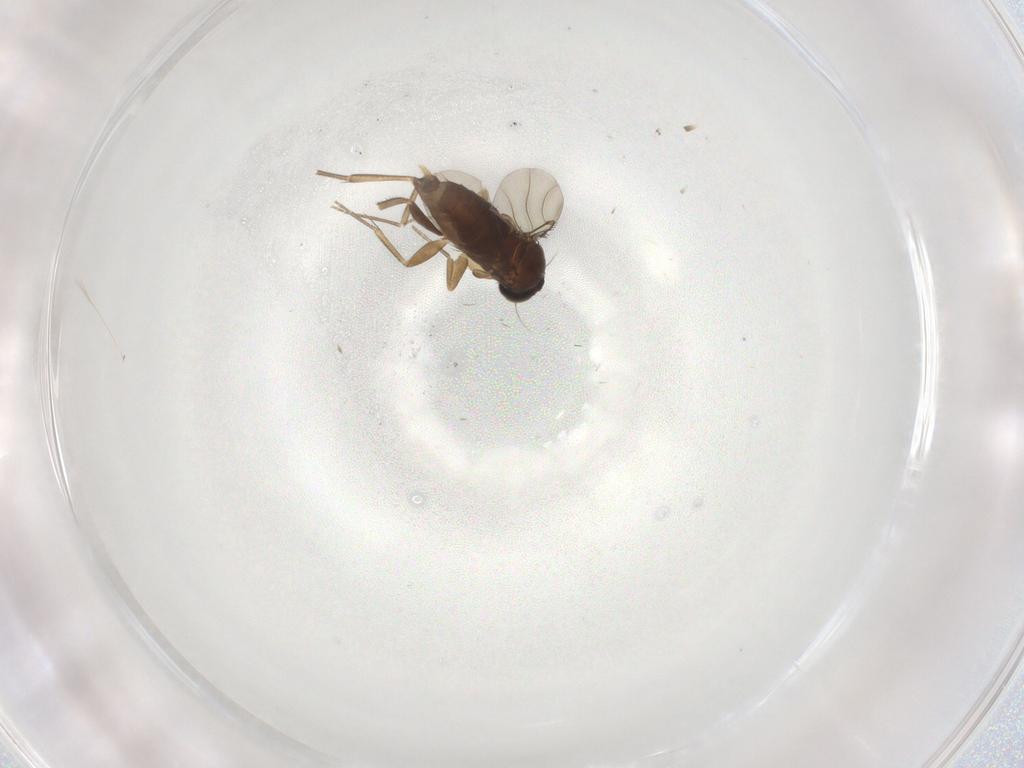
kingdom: Animalia
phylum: Arthropoda
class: Insecta
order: Diptera
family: Phoridae
